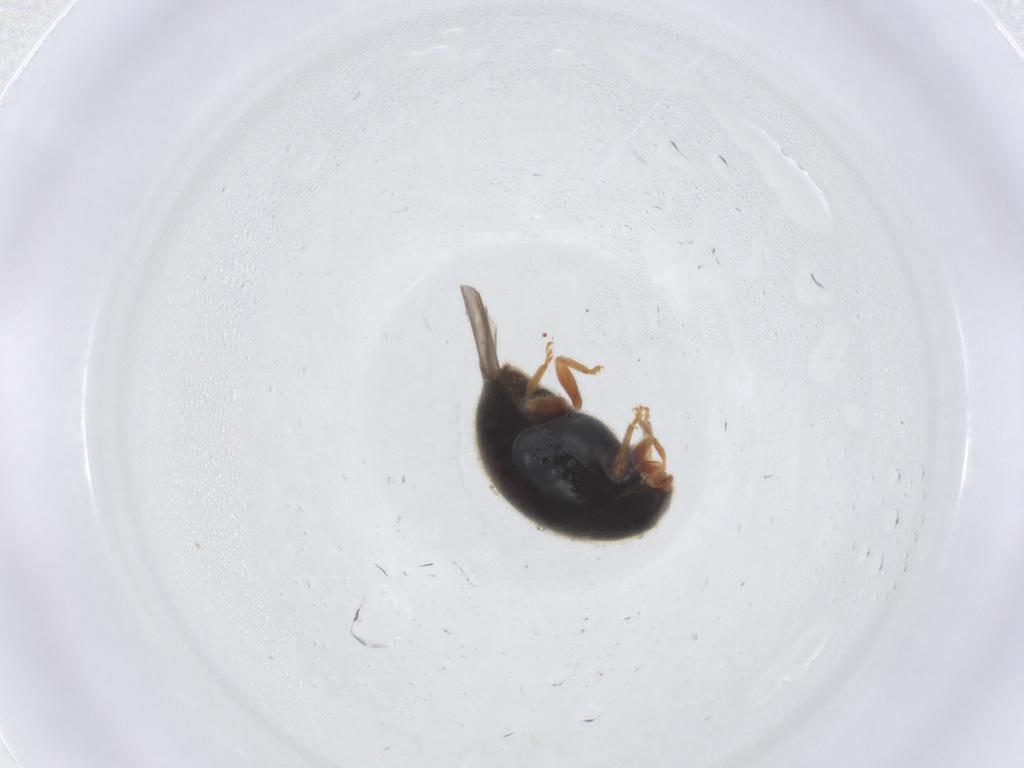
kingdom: Animalia
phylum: Arthropoda
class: Insecta
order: Coleoptera
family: Coccinellidae
